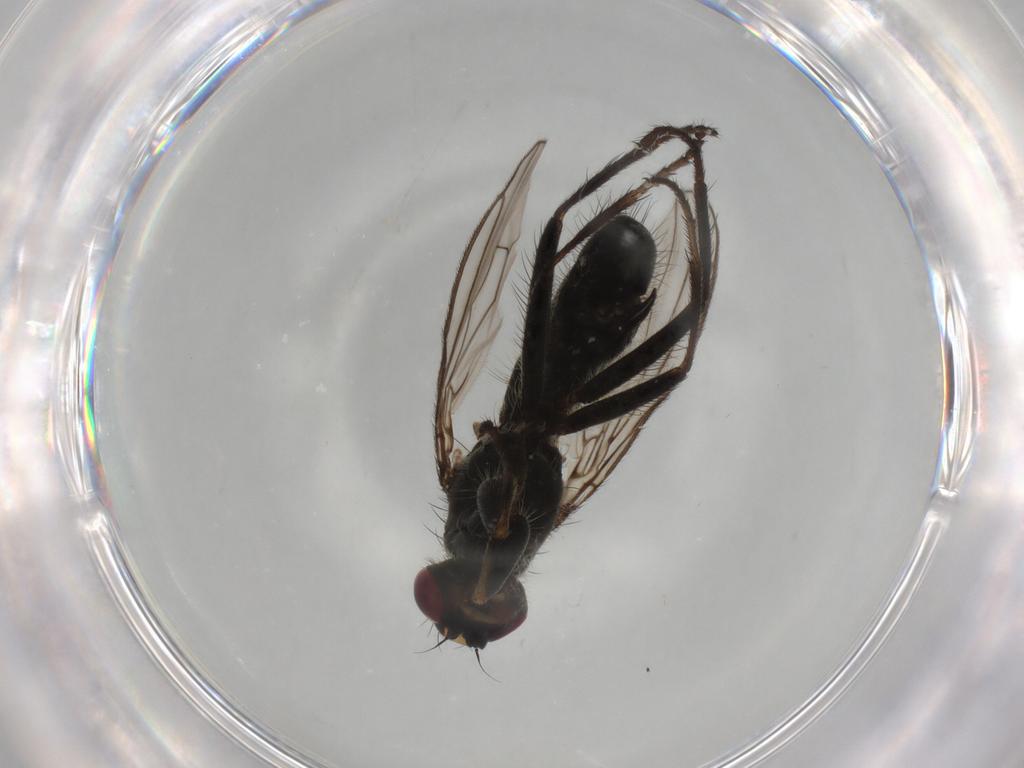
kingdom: Animalia
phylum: Arthropoda
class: Insecta
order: Diptera
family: Scathophagidae
